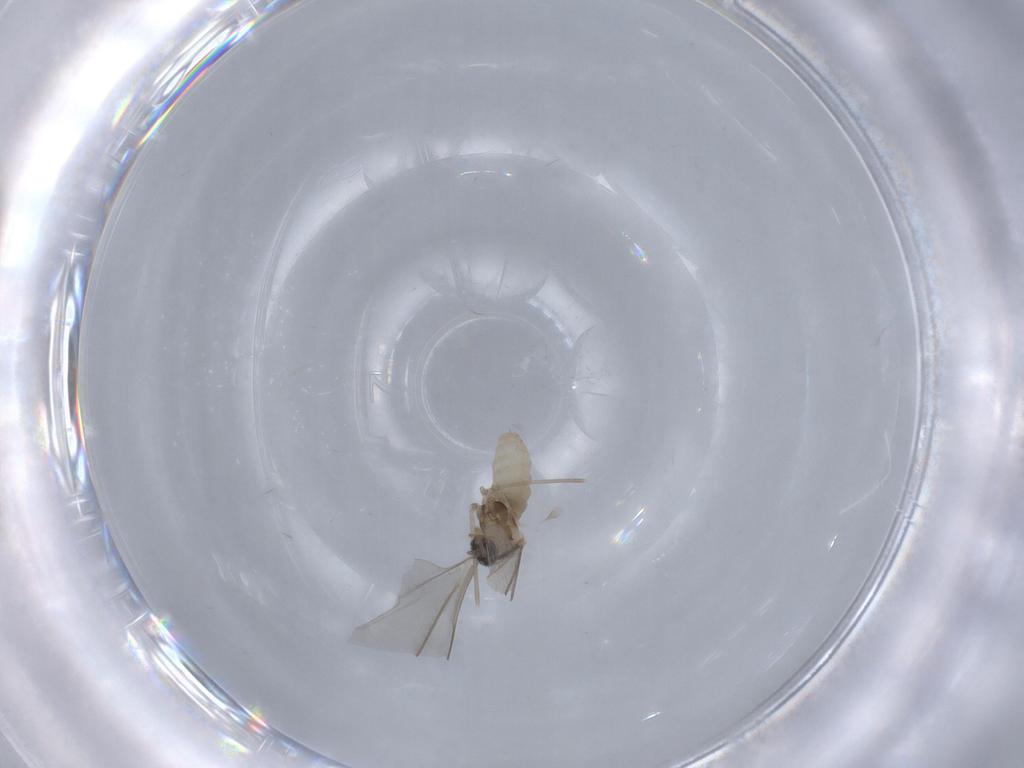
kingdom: Animalia
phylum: Arthropoda
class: Insecta
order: Diptera
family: Cecidomyiidae
